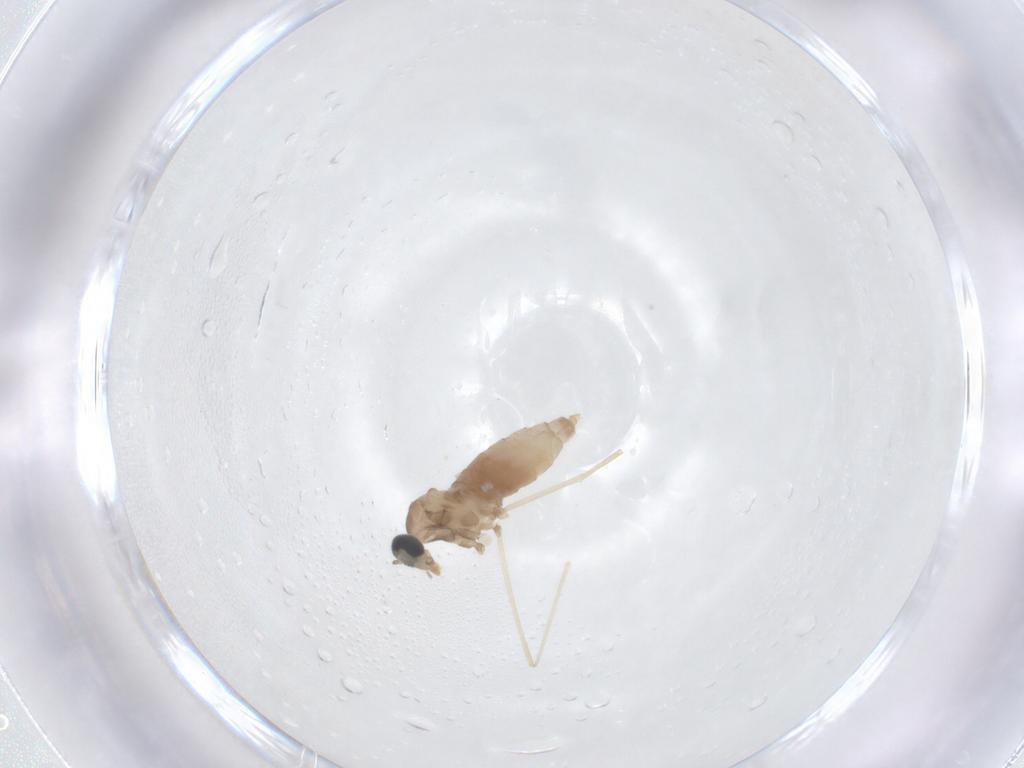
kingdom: Animalia
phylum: Arthropoda
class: Insecta
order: Diptera
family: Cecidomyiidae
